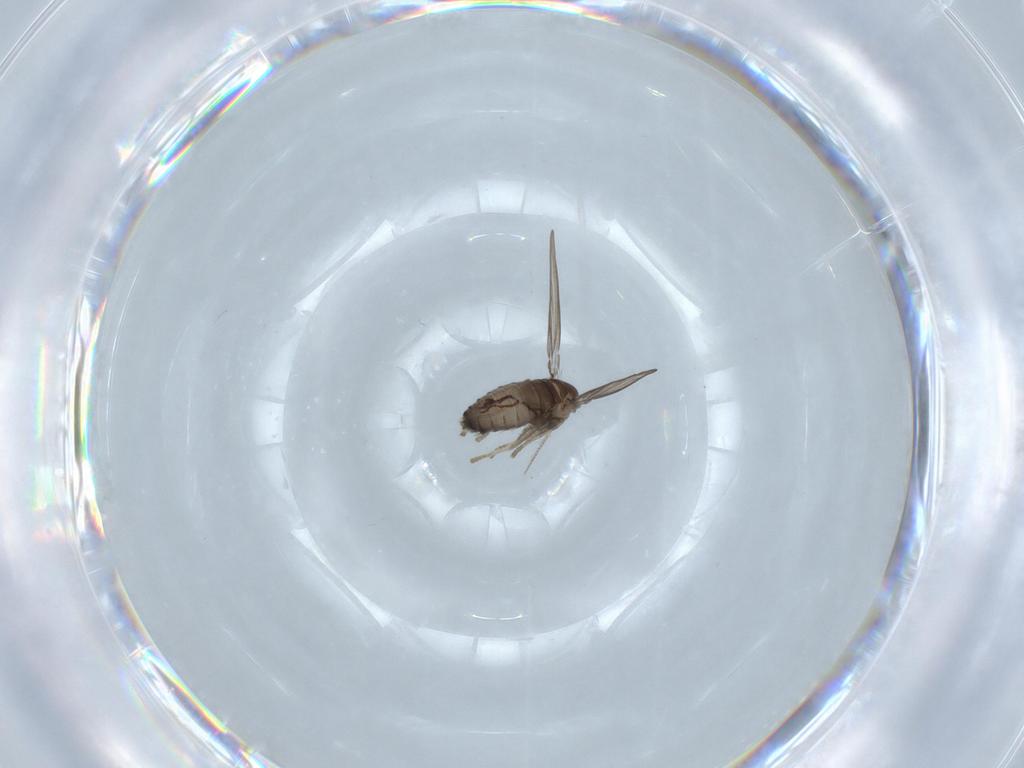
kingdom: Animalia
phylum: Arthropoda
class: Insecta
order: Diptera
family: Psychodidae
